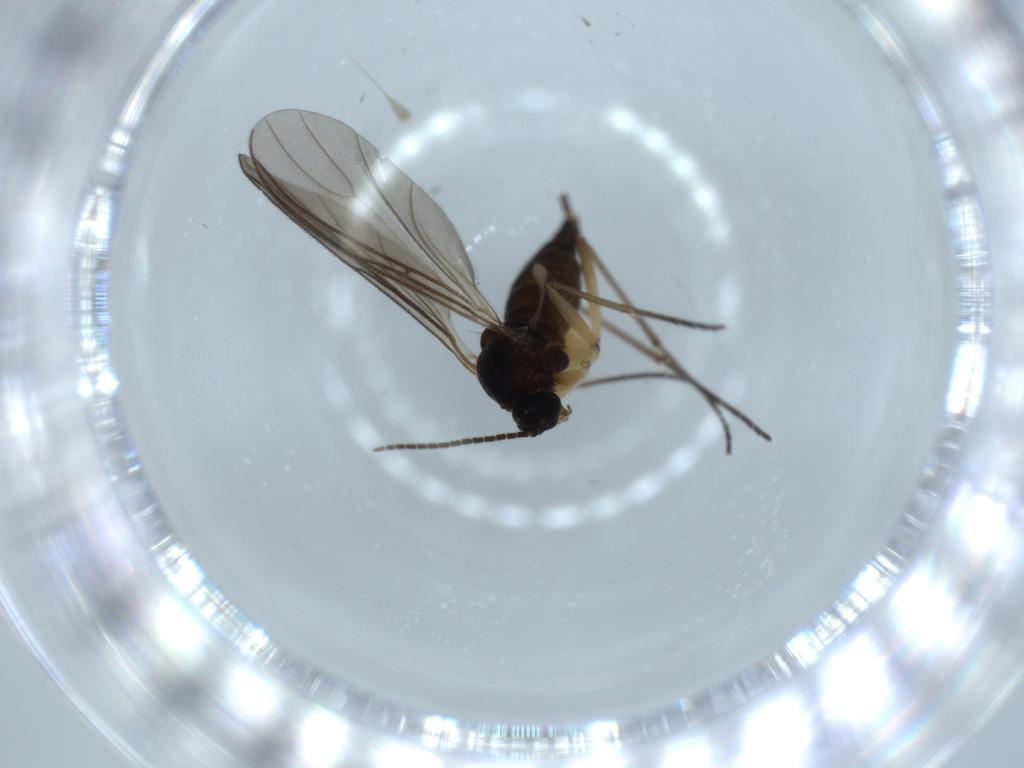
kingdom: Animalia
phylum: Arthropoda
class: Insecta
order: Diptera
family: Sciaridae
